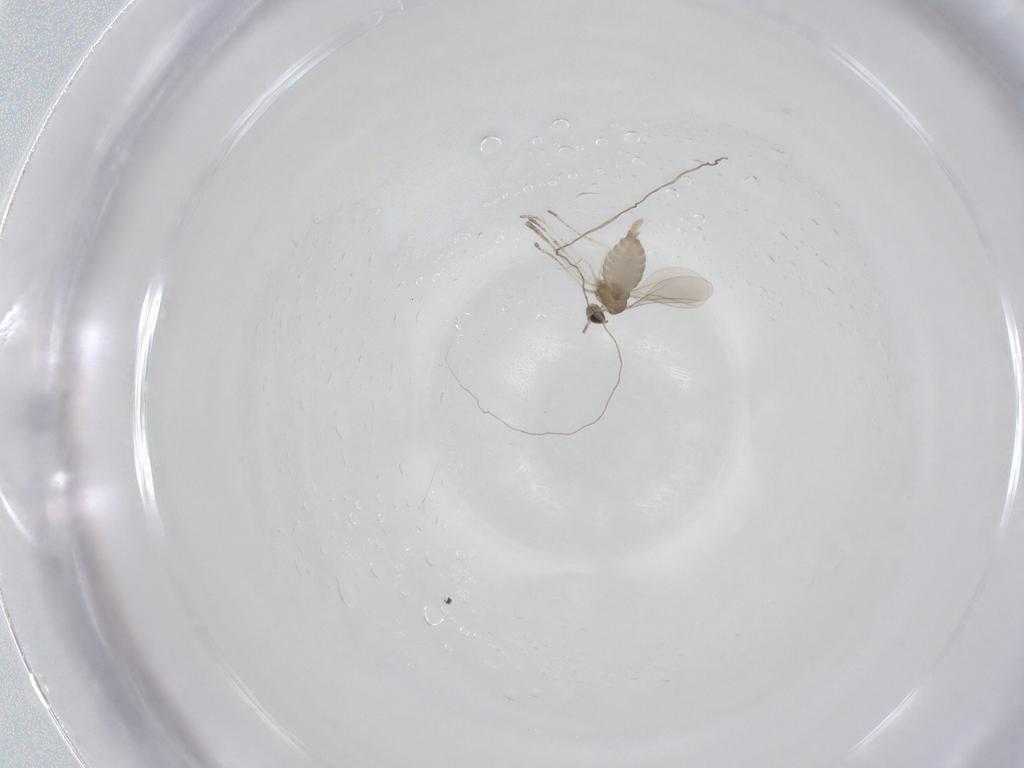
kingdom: Animalia
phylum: Arthropoda
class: Insecta
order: Diptera
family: Cecidomyiidae
